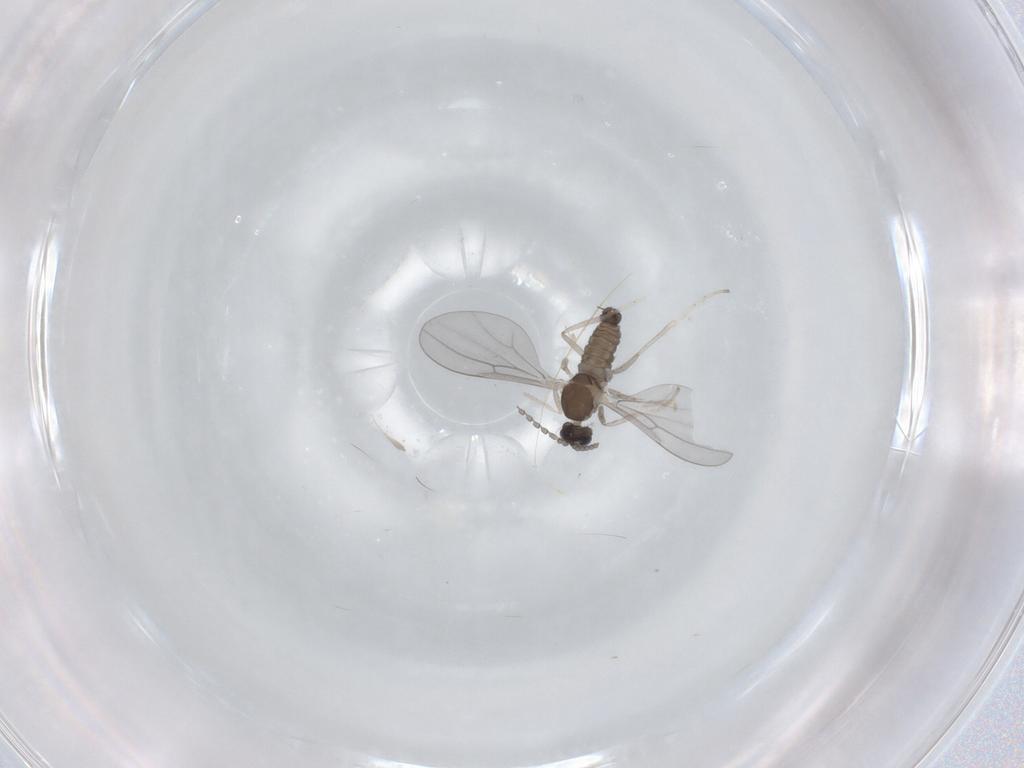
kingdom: Animalia
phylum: Arthropoda
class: Insecta
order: Diptera
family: Cecidomyiidae
